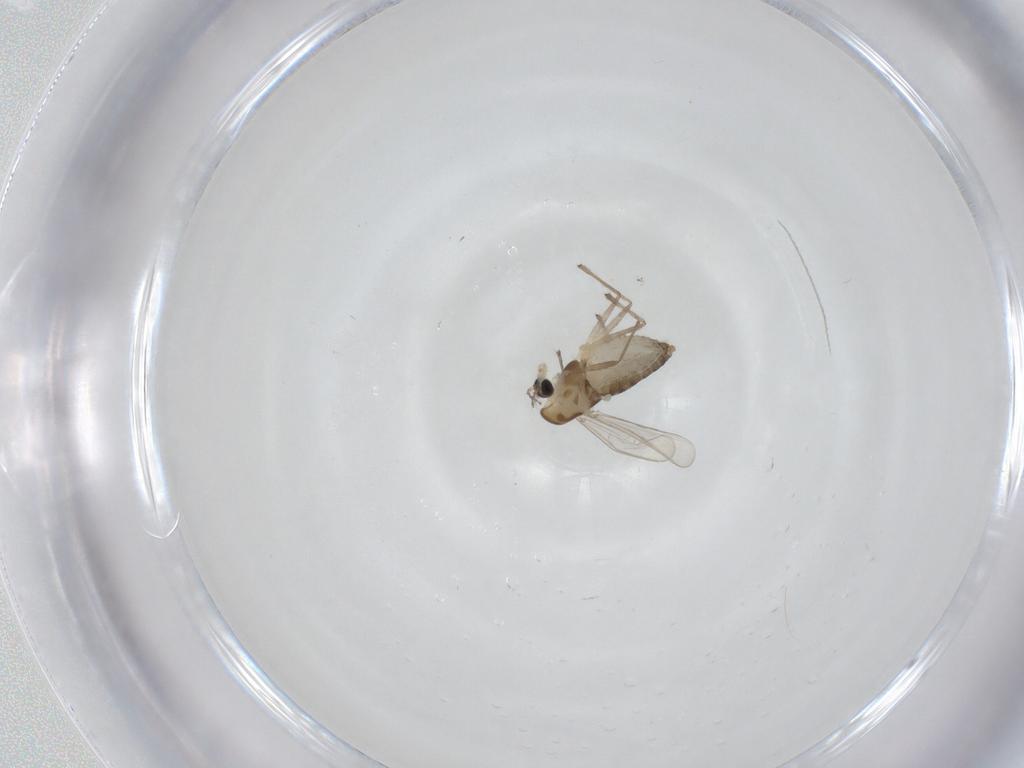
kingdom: Animalia
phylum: Arthropoda
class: Insecta
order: Diptera
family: Chironomidae
